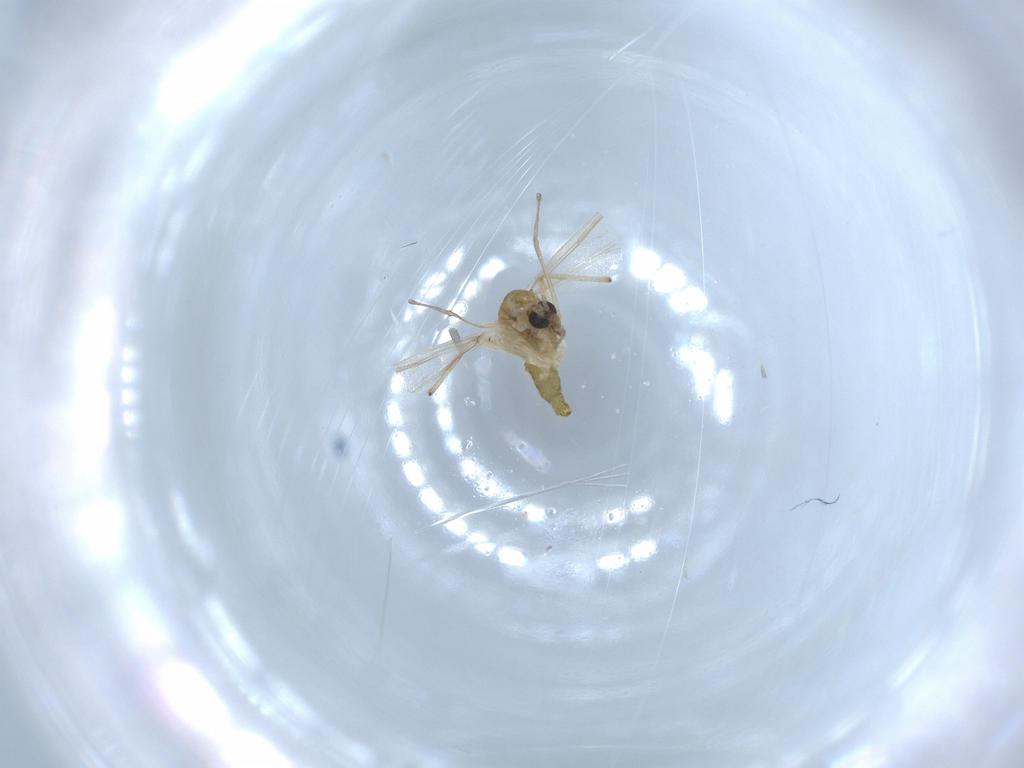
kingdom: Animalia
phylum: Arthropoda
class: Insecta
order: Diptera
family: Chironomidae
